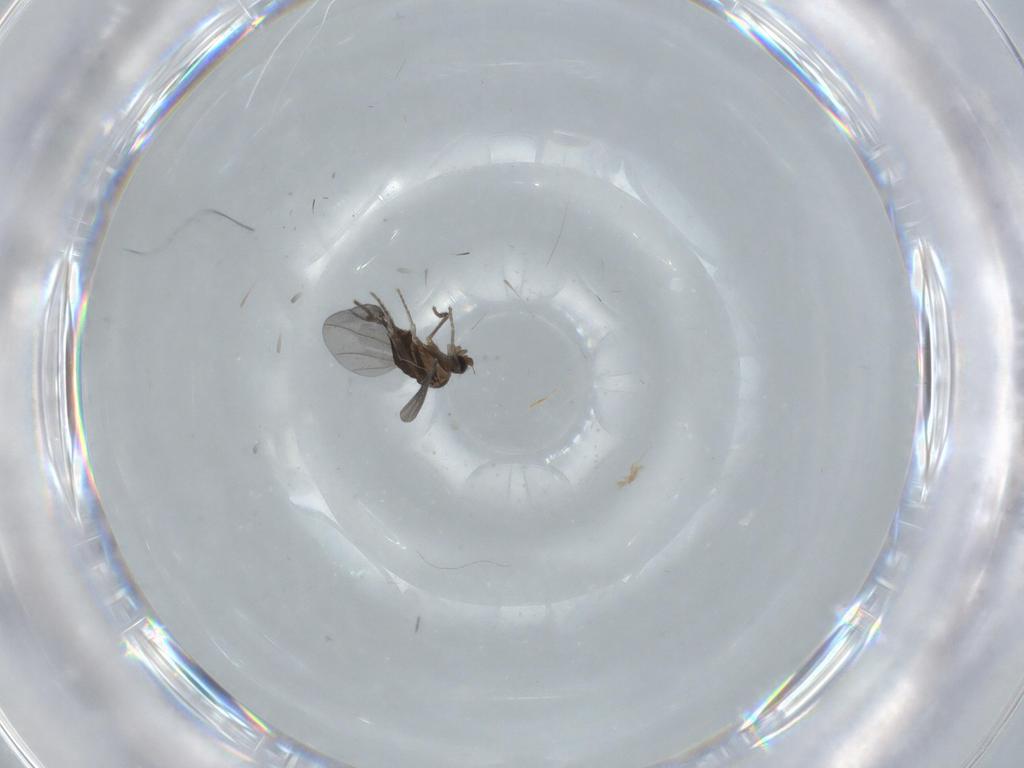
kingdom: Animalia
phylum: Arthropoda
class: Insecta
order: Diptera
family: Phoridae
